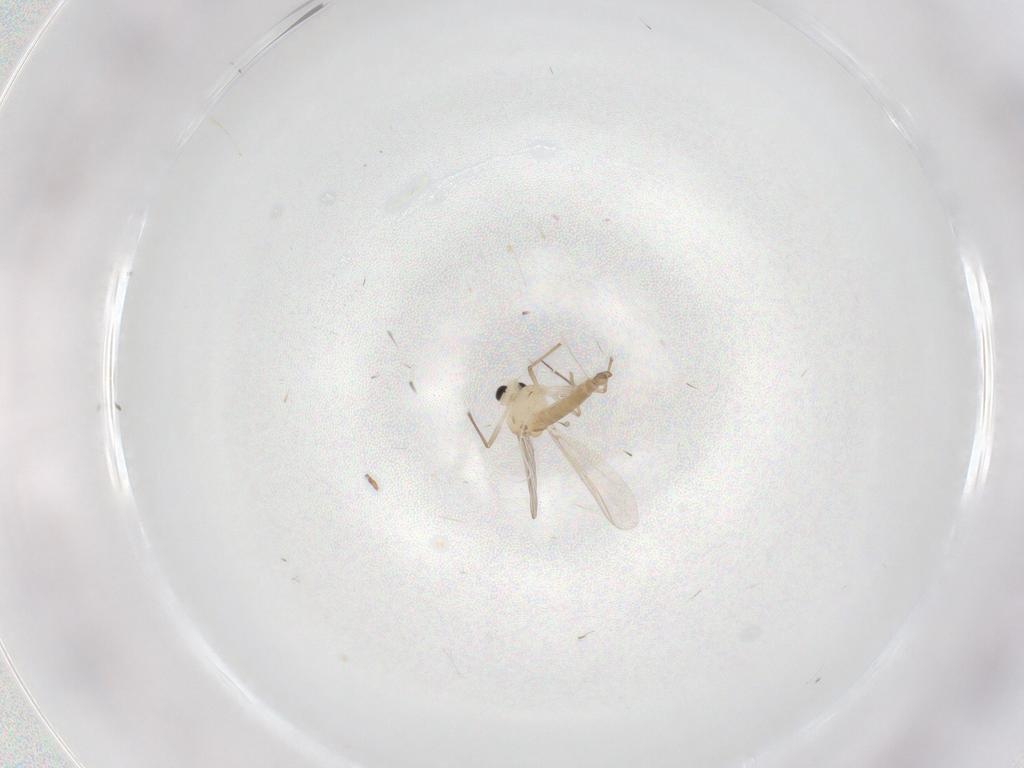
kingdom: Animalia
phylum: Arthropoda
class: Insecta
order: Diptera
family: Chironomidae
